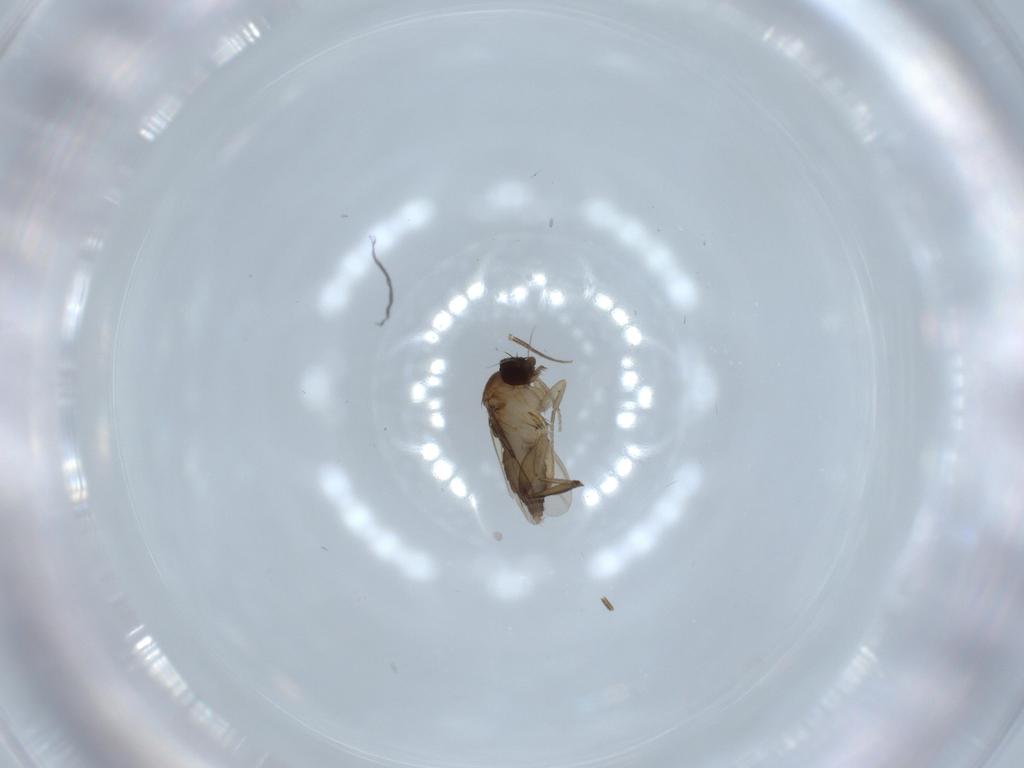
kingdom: Animalia
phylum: Arthropoda
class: Insecta
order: Diptera
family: Phoridae
